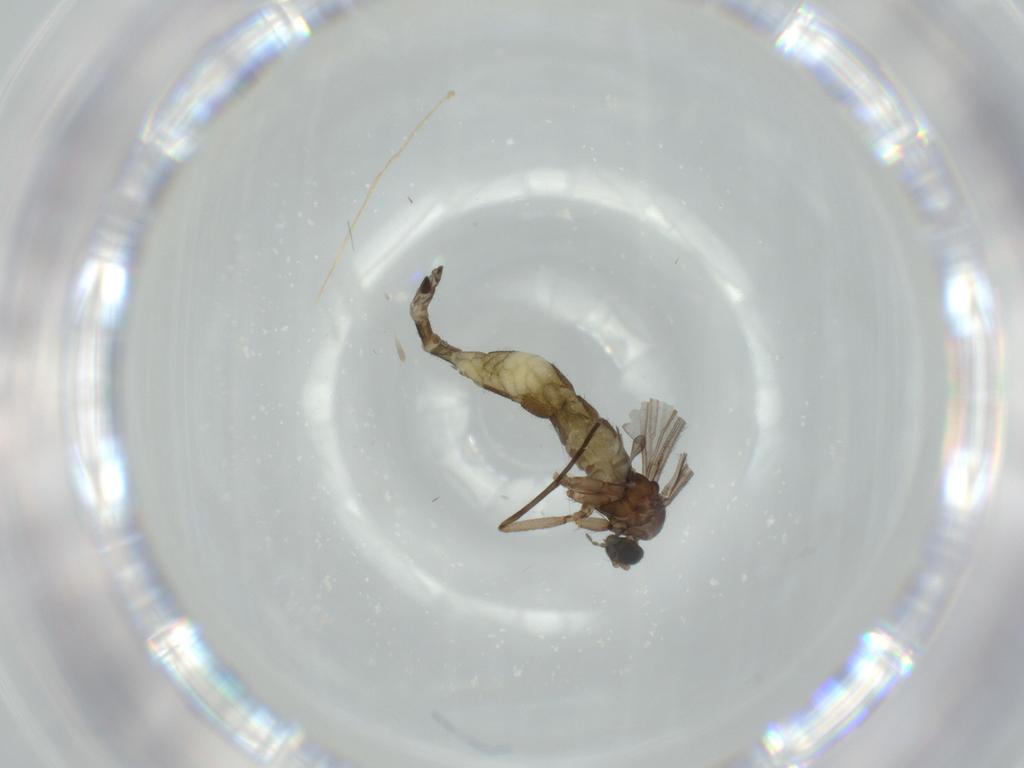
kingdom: Animalia
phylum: Arthropoda
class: Insecta
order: Diptera
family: Sciaridae
